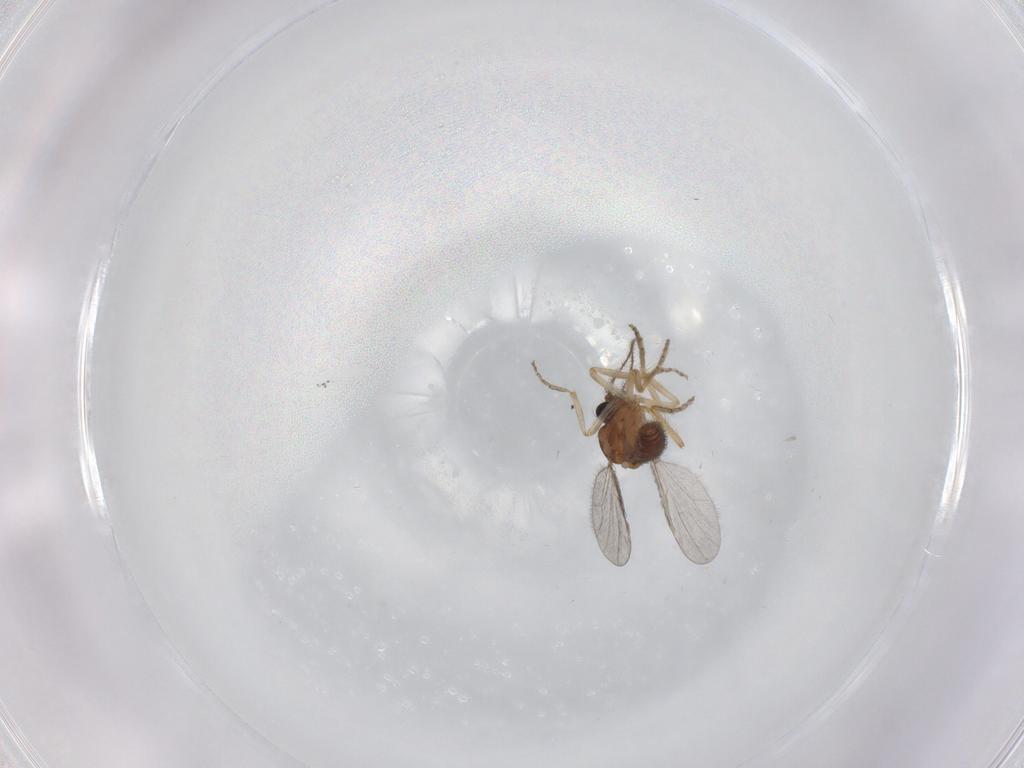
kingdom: Animalia
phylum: Arthropoda
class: Insecta
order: Diptera
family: Ceratopogonidae
